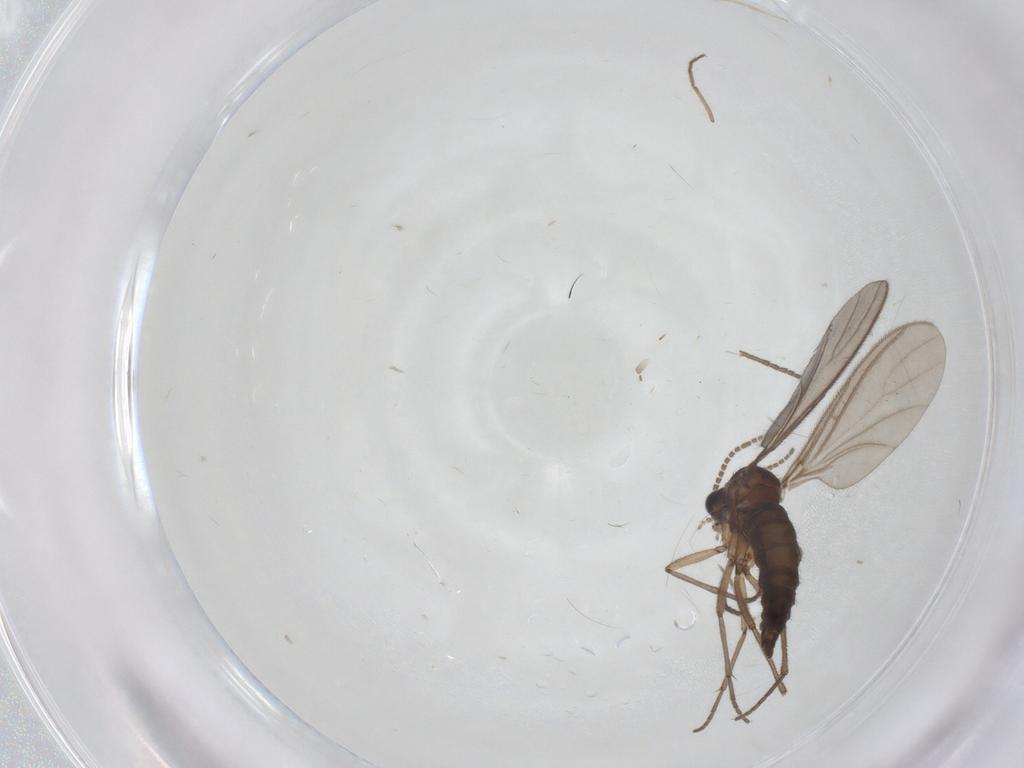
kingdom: Animalia
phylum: Arthropoda
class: Insecta
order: Diptera
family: Sciaridae
